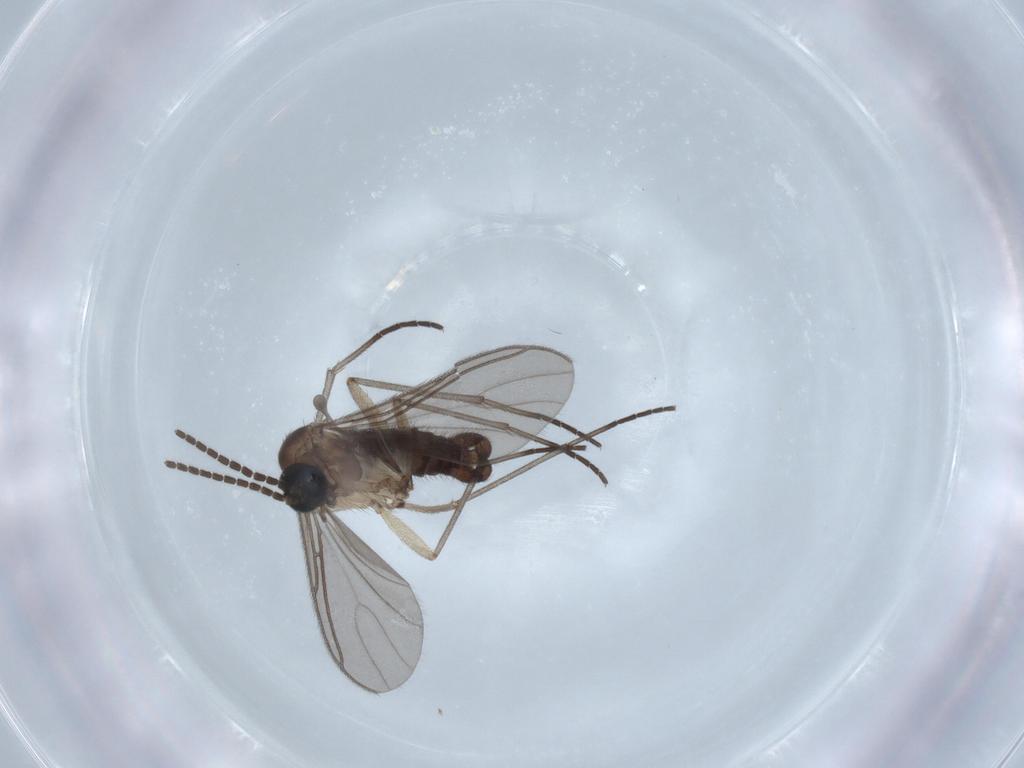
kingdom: Animalia
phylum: Arthropoda
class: Insecta
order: Diptera
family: Sciaridae
